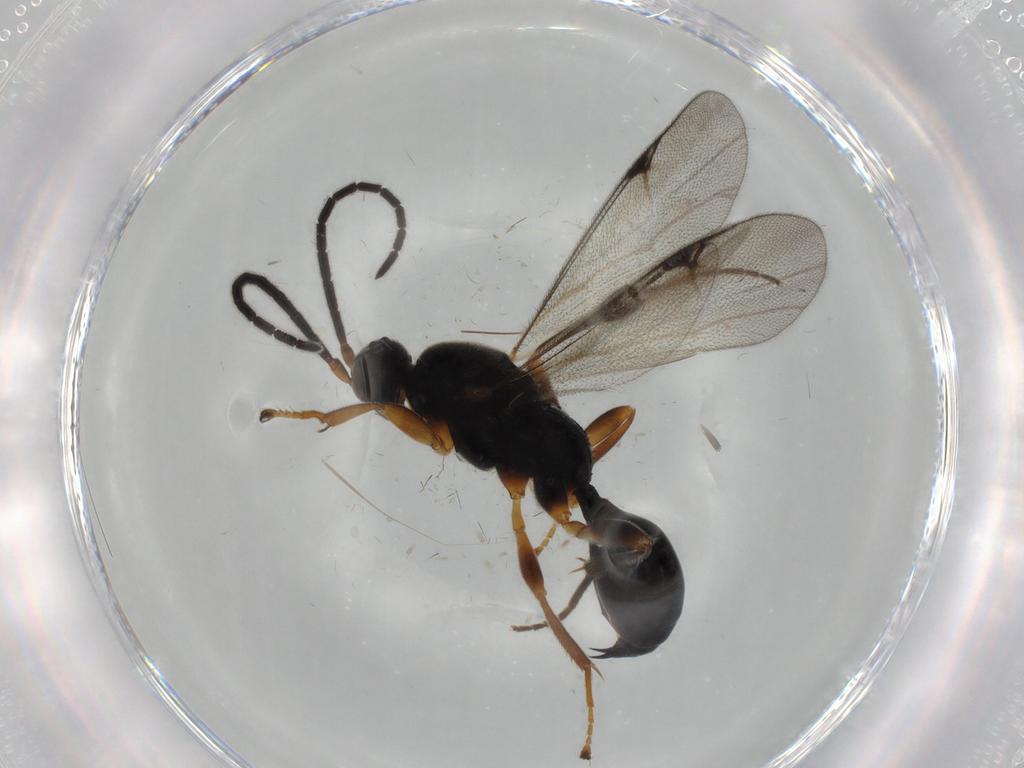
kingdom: Animalia
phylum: Arthropoda
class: Insecta
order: Hymenoptera
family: Proctotrupidae
